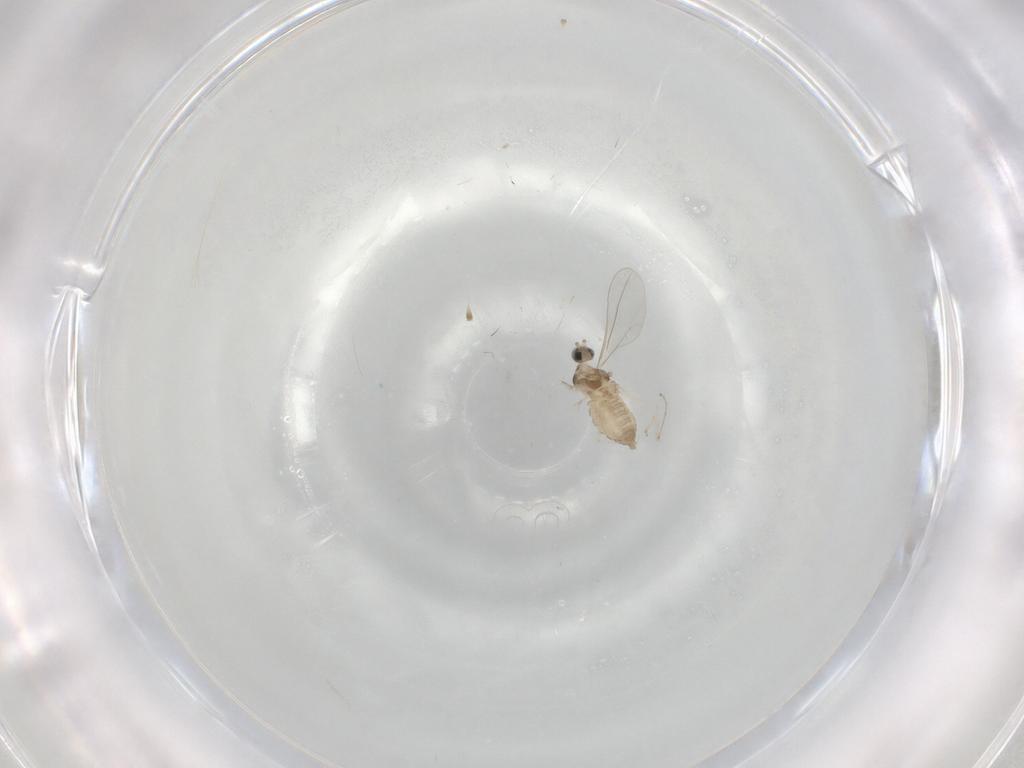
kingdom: Animalia
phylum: Arthropoda
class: Insecta
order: Diptera
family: Cecidomyiidae
